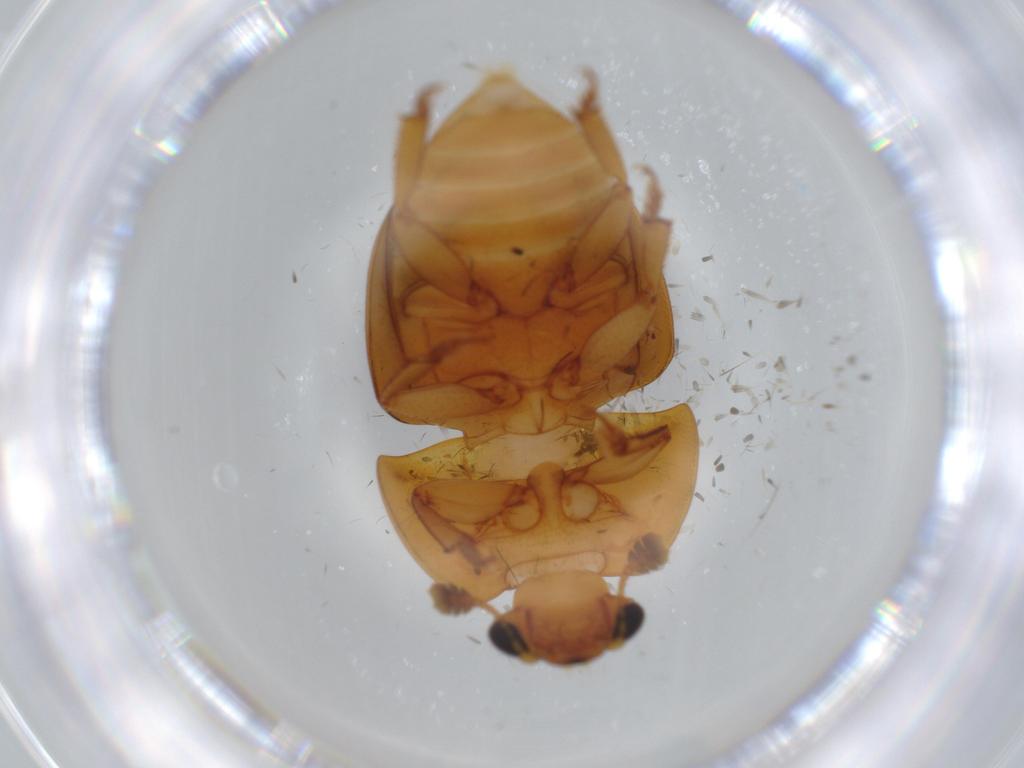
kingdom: Animalia
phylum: Arthropoda
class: Insecta
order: Coleoptera
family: Nitidulidae
